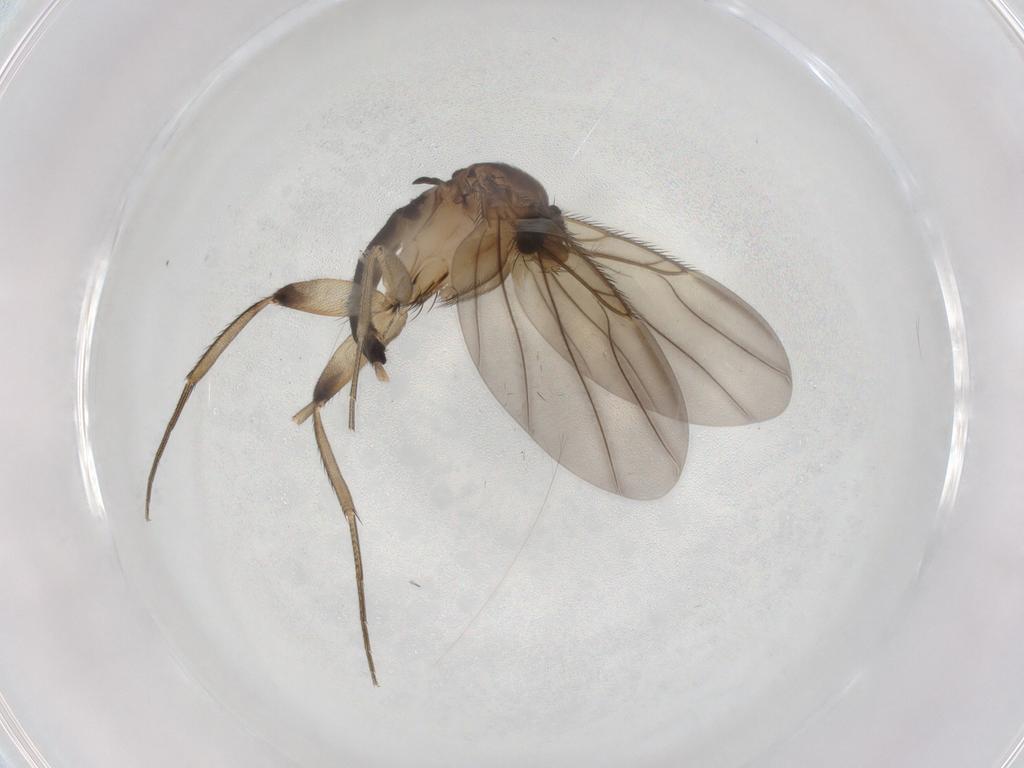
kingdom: Animalia
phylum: Arthropoda
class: Insecta
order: Diptera
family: Phoridae
